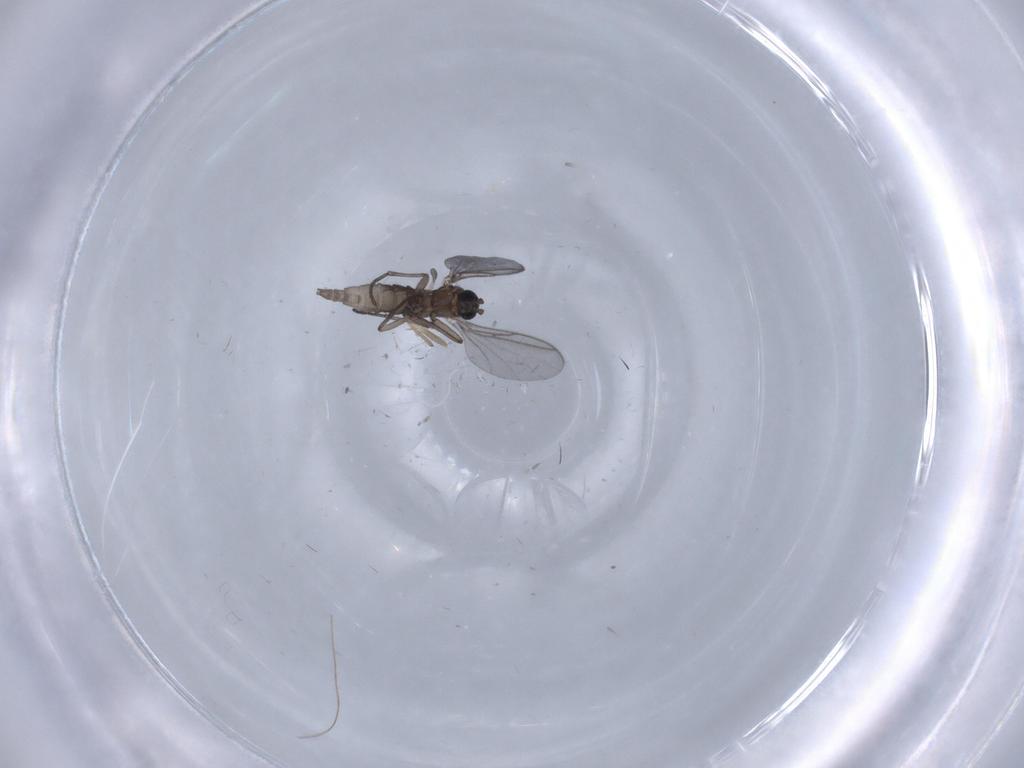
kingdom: Animalia
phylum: Arthropoda
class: Insecta
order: Diptera
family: Chironomidae
